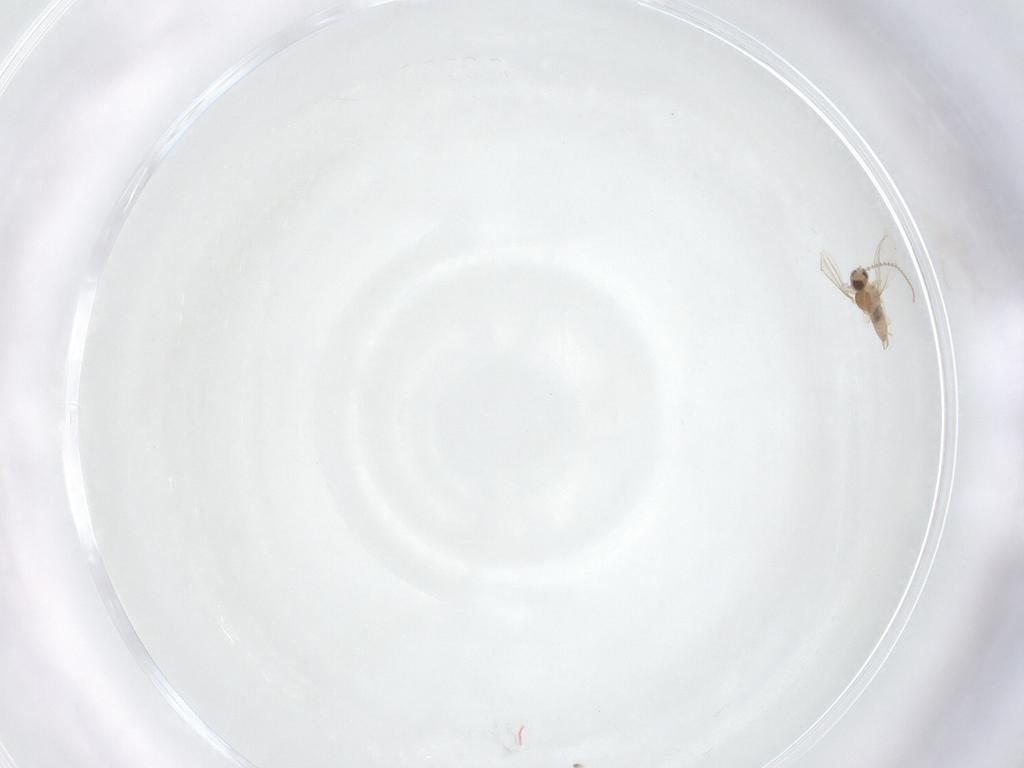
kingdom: Animalia
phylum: Arthropoda
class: Insecta
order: Diptera
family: Cecidomyiidae
